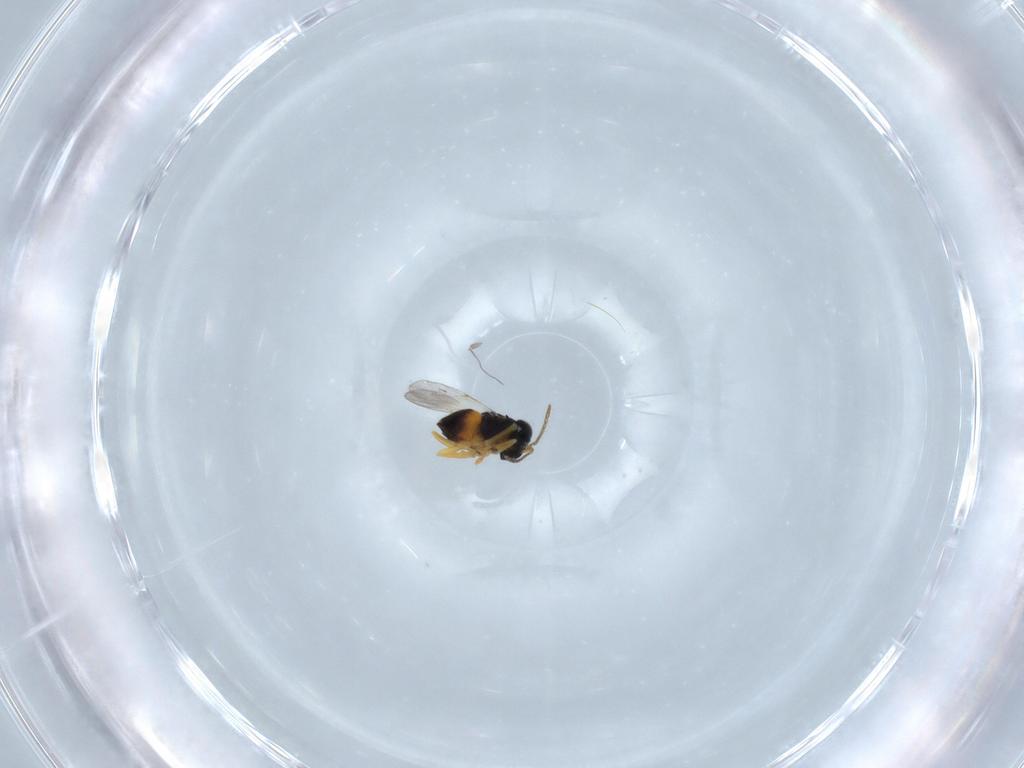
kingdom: Animalia
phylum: Arthropoda
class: Insecta
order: Hymenoptera
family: Encyrtidae
